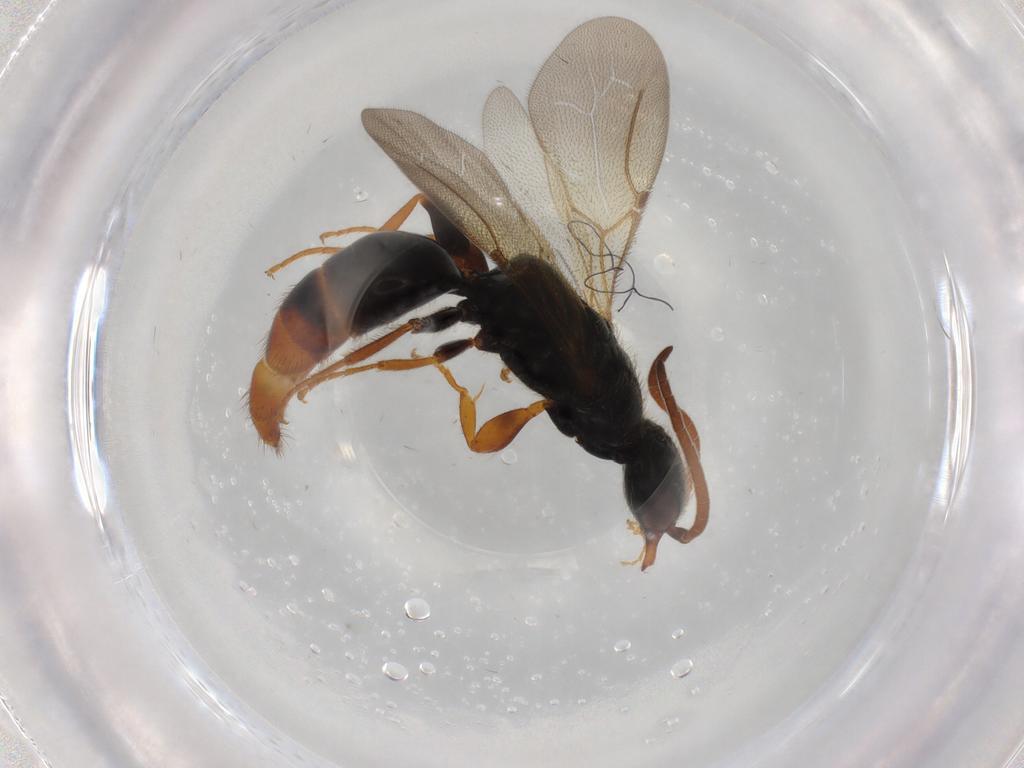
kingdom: Animalia
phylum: Arthropoda
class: Insecta
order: Hymenoptera
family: Bethylidae
